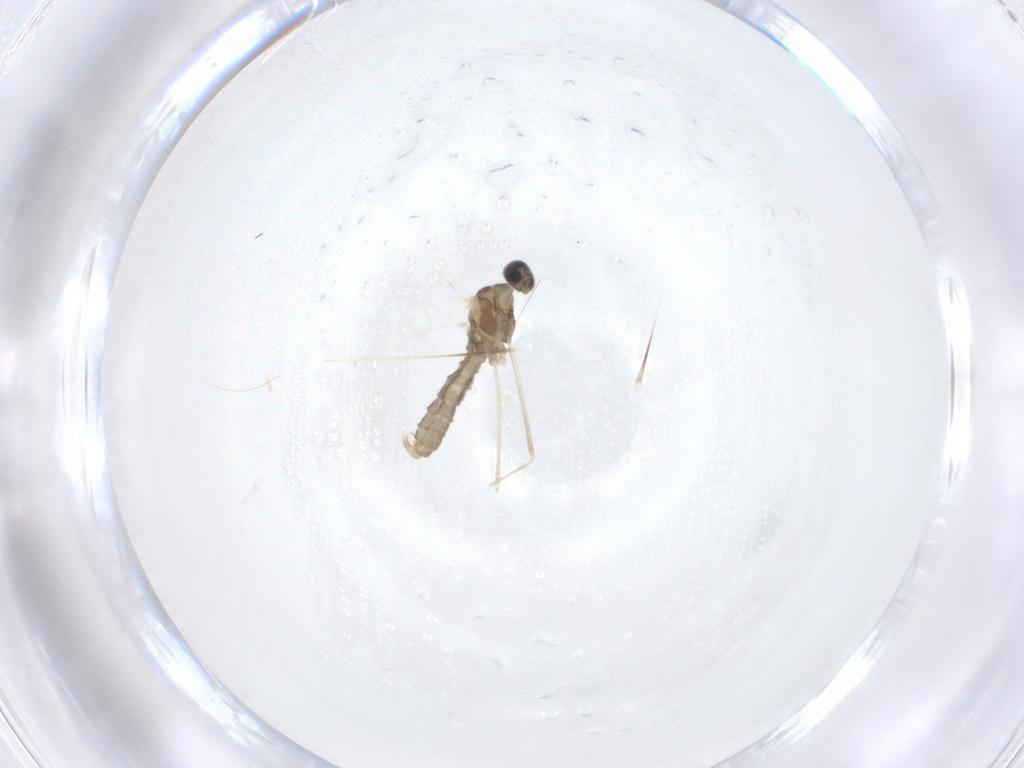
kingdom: Animalia
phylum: Arthropoda
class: Insecta
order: Diptera
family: Cecidomyiidae
